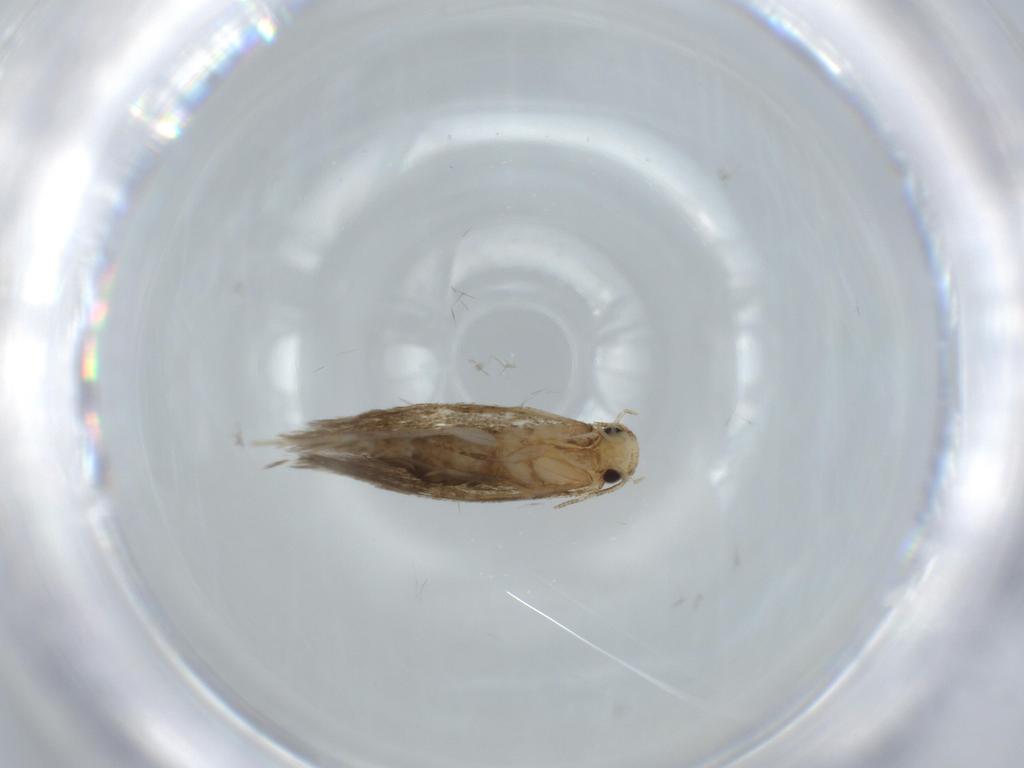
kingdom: Animalia
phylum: Arthropoda
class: Insecta
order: Lepidoptera
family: Tineidae
